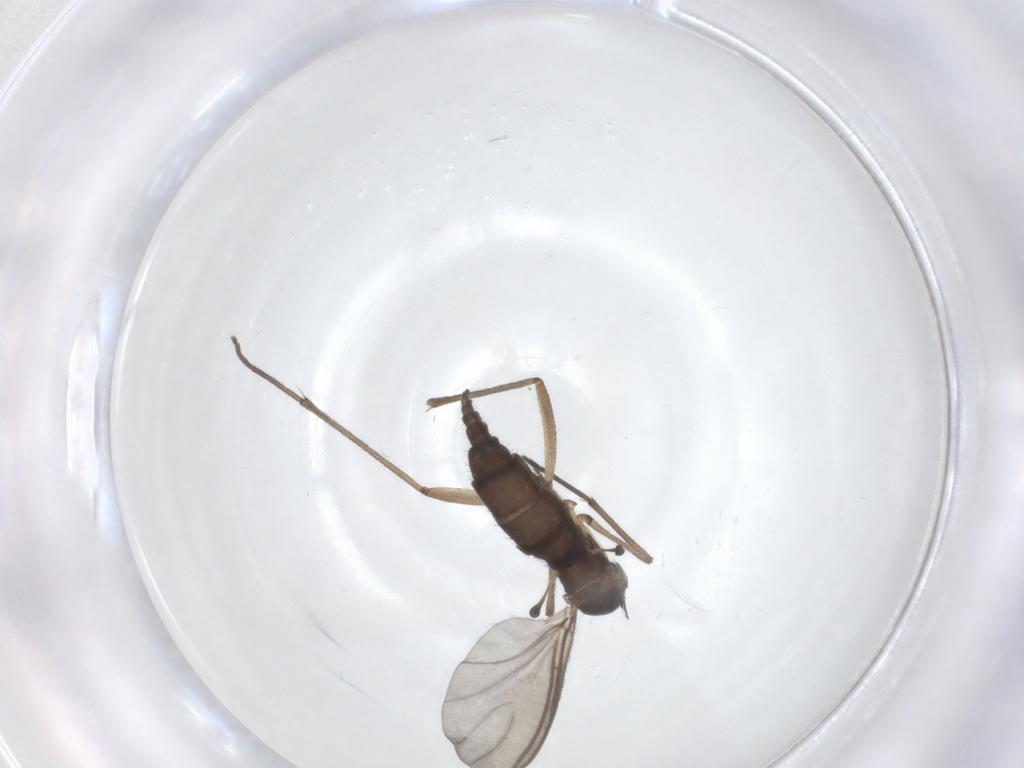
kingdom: Animalia
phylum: Arthropoda
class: Insecta
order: Diptera
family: Sciaridae
